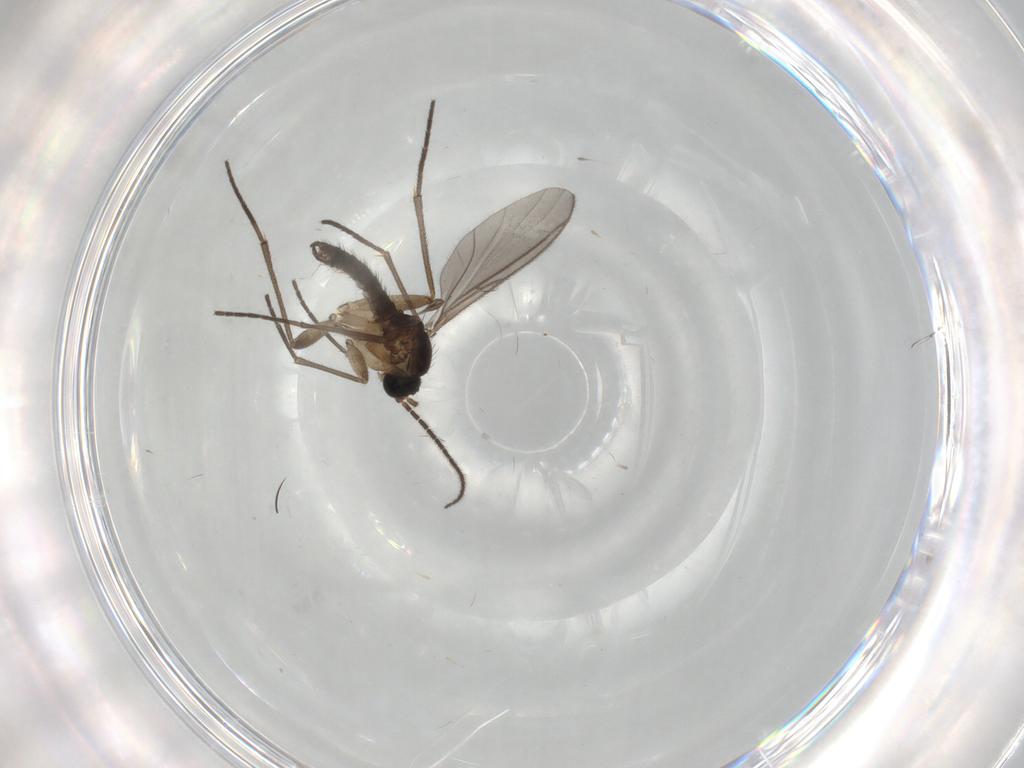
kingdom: Animalia
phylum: Arthropoda
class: Insecta
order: Diptera
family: Sciaridae
